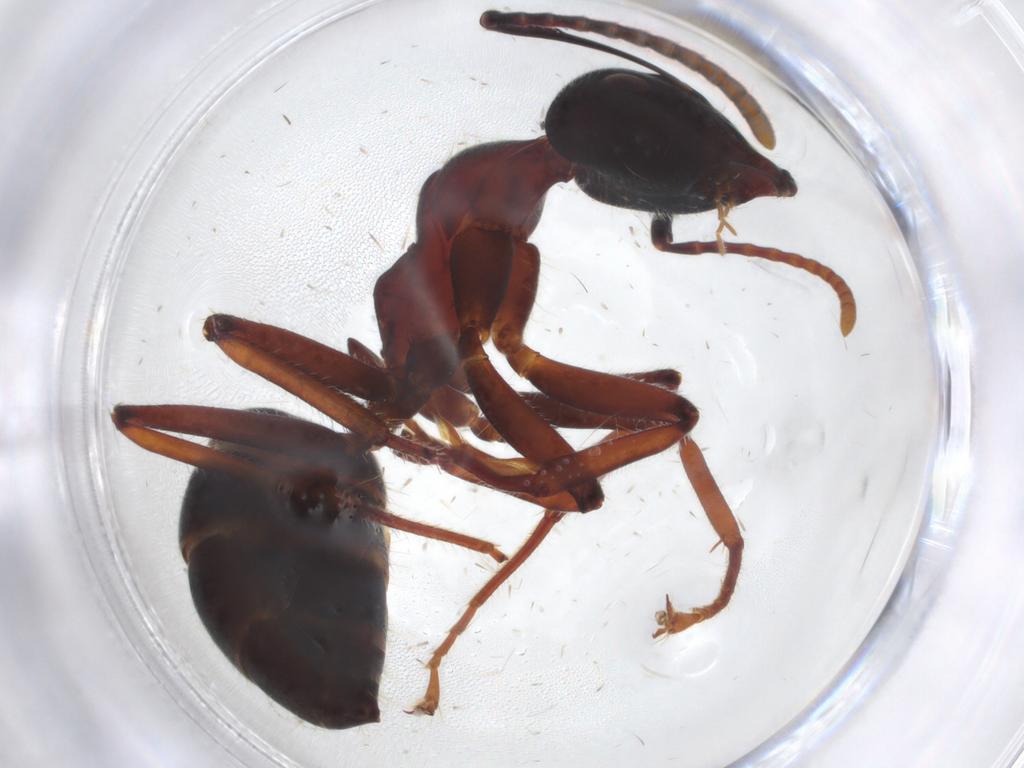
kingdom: Animalia
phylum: Arthropoda
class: Insecta
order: Hymenoptera
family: Formicidae
